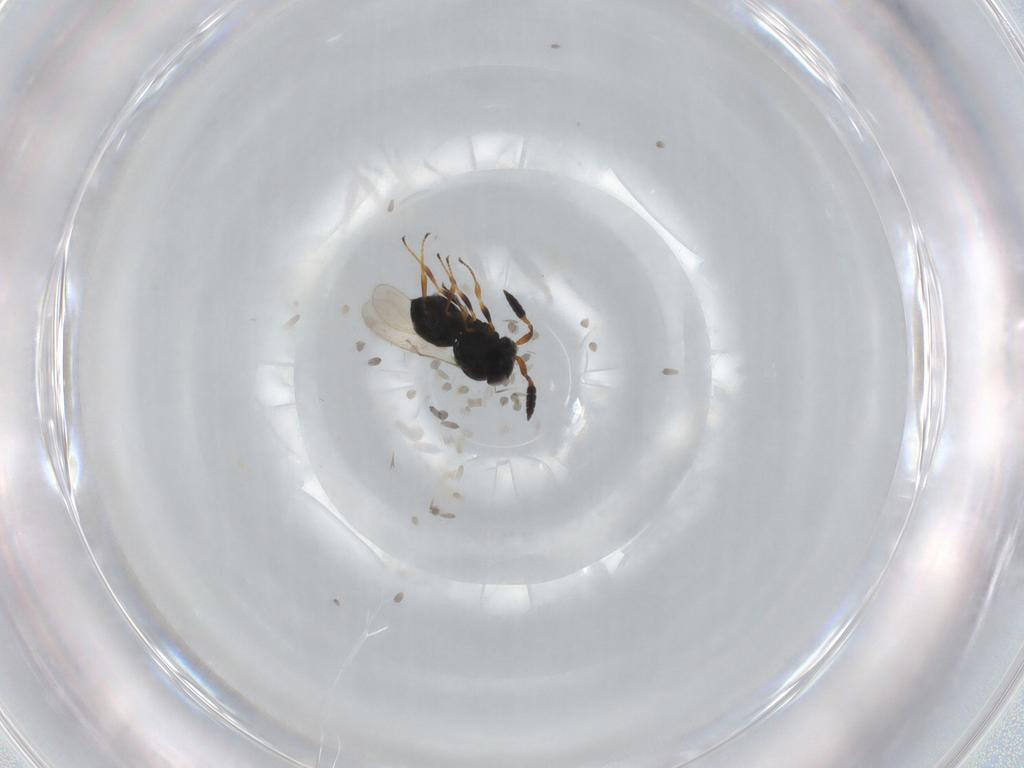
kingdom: Animalia
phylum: Arthropoda
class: Insecta
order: Hymenoptera
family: Scelionidae
